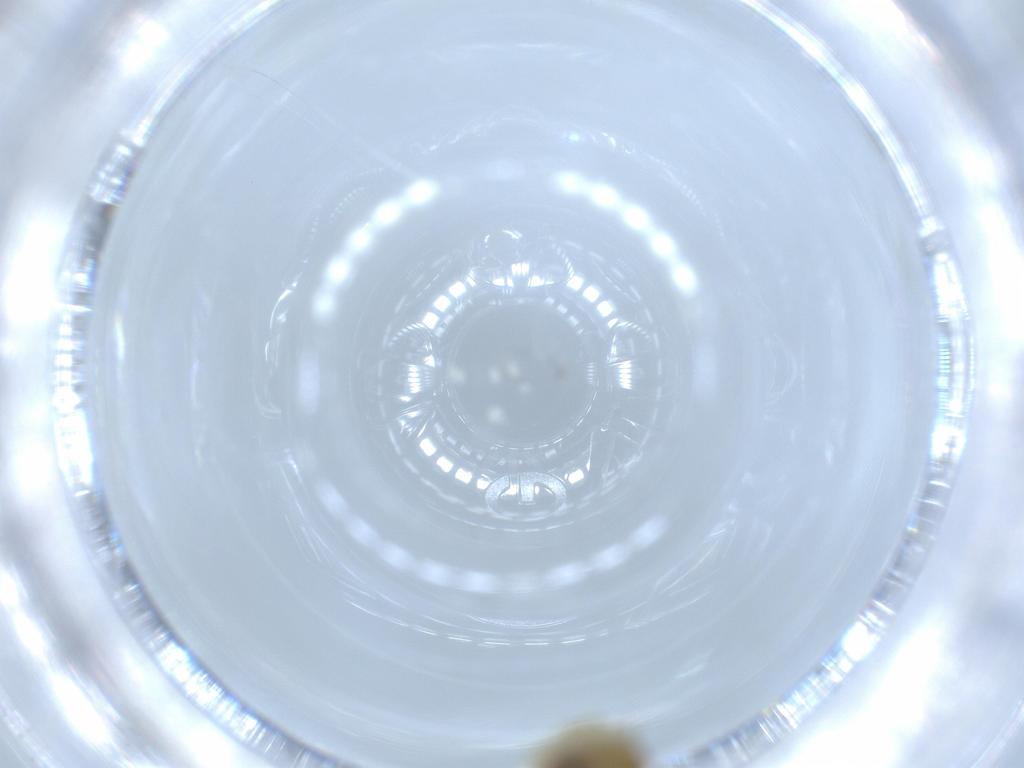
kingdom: Animalia
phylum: Arthropoda
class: Insecta
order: Diptera
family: Chironomidae
